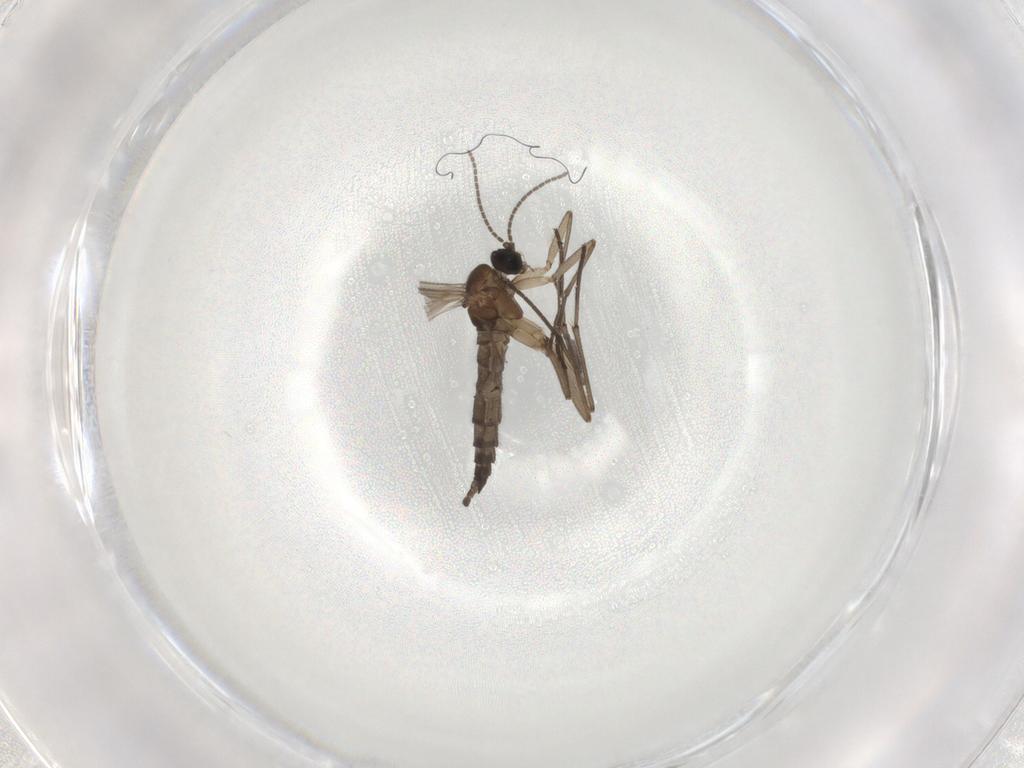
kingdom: Animalia
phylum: Arthropoda
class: Insecta
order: Diptera
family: Sciaridae
